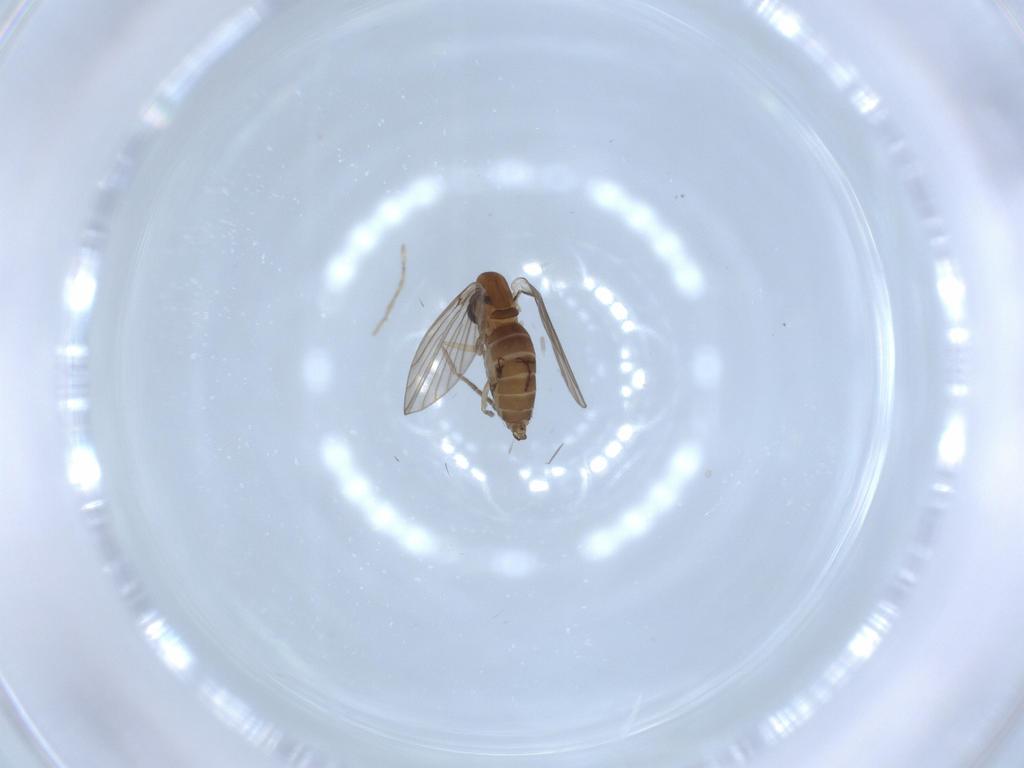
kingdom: Animalia
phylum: Arthropoda
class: Insecta
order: Diptera
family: Psychodidae
